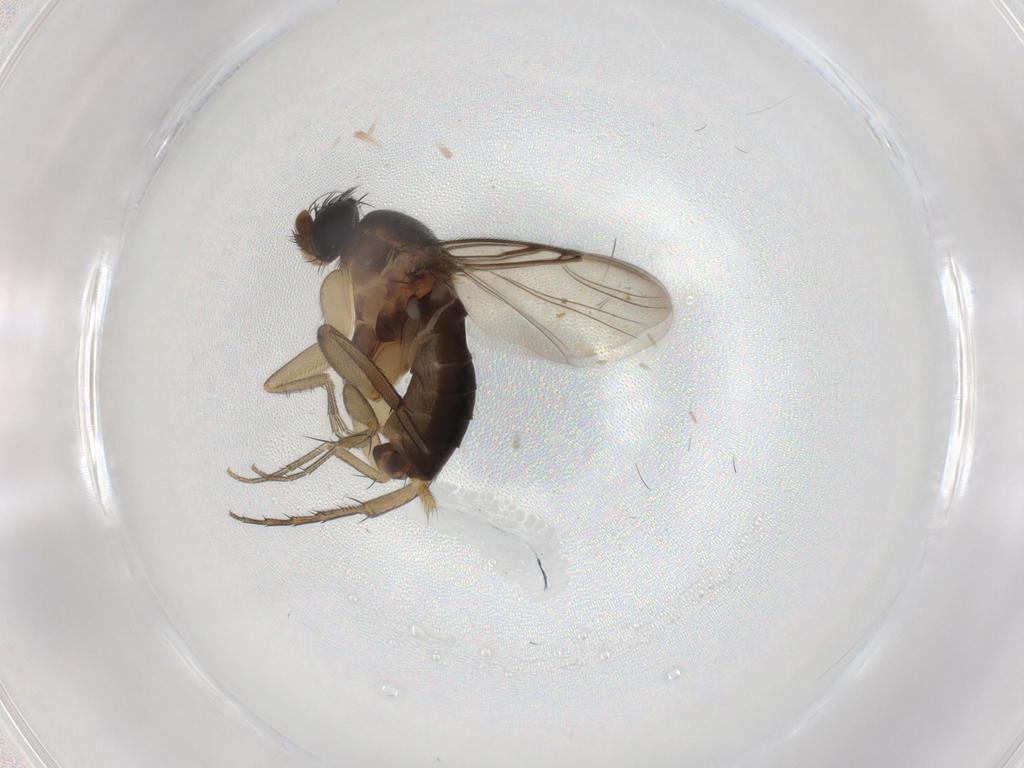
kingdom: Animalia
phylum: Arthropoda
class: Insecta
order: Diptera
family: Phoridae
